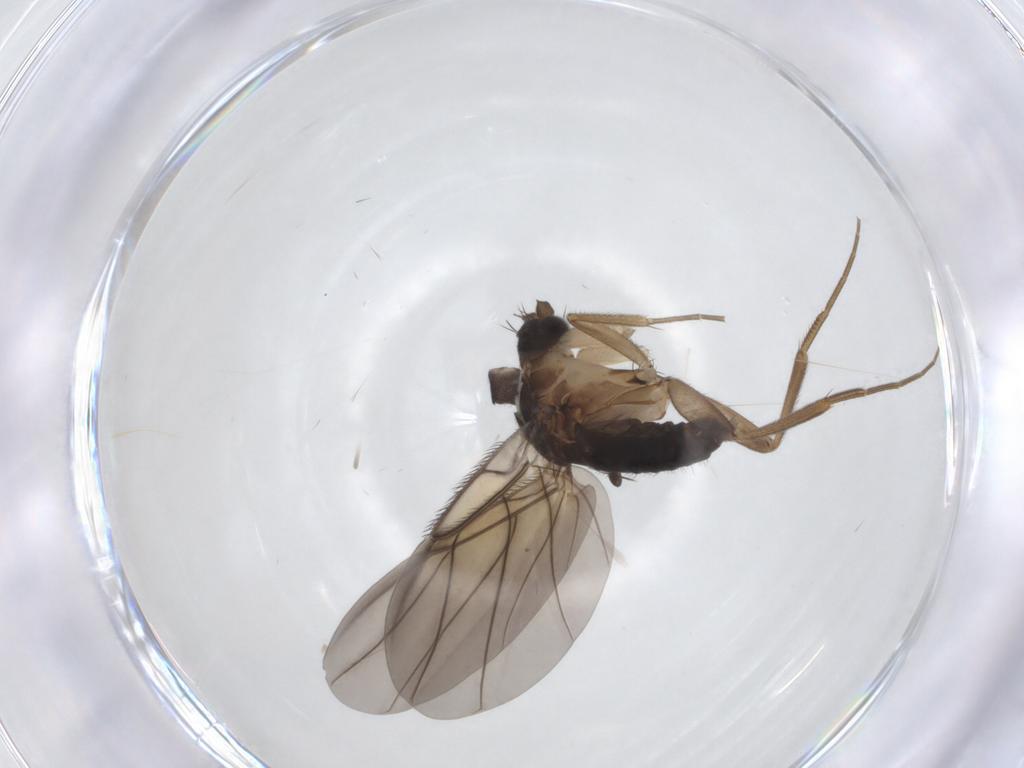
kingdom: Animalia
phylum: Arthropoda
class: Insecta
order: Diptera
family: Phoridae
